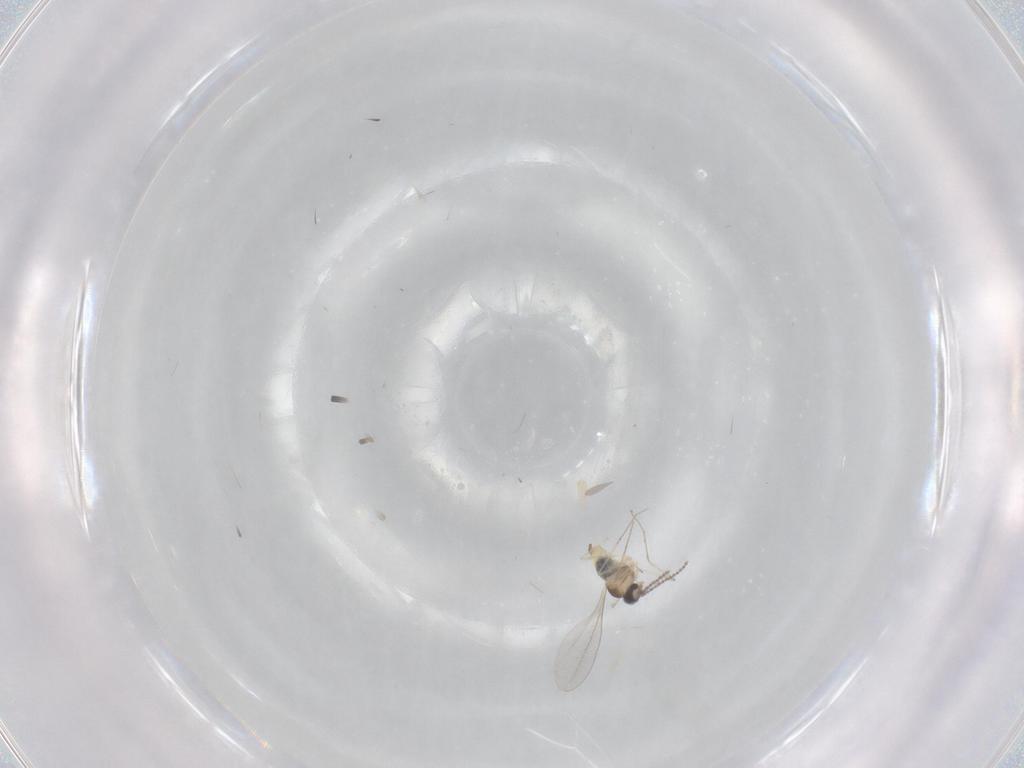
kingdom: Animalia
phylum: Arthropoda
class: Insecta
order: Diptera
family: Cecidomyiidae
